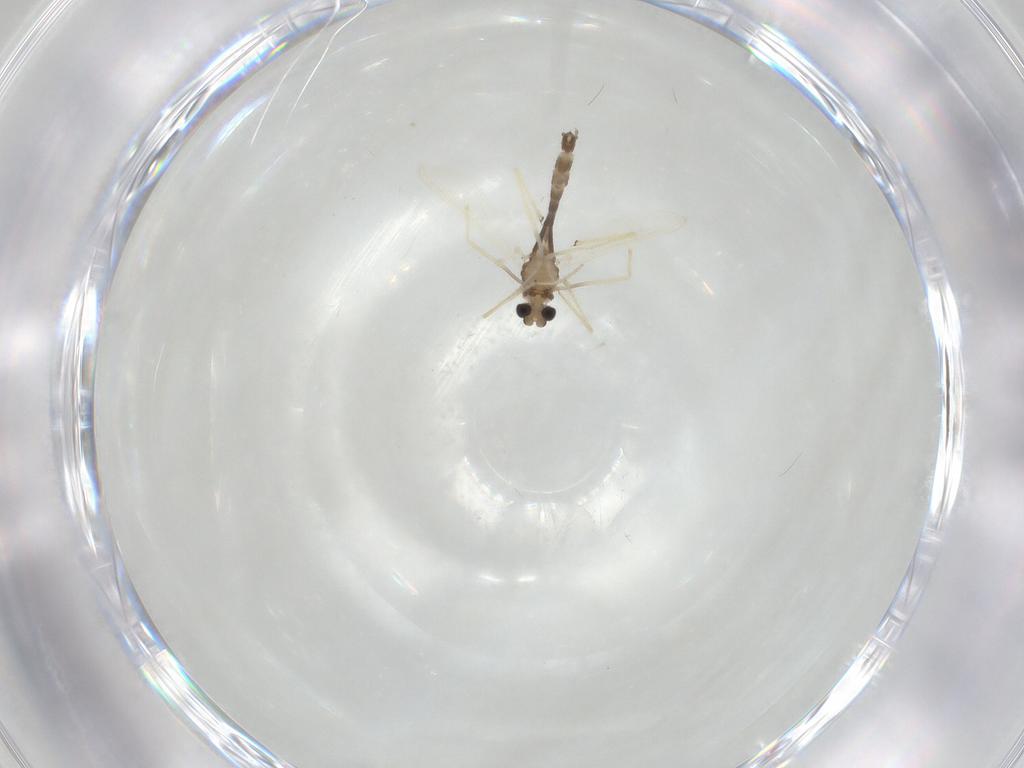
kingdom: Animalia
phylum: Arthropoda
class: Insecta
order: Diptera
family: Chironomidae
